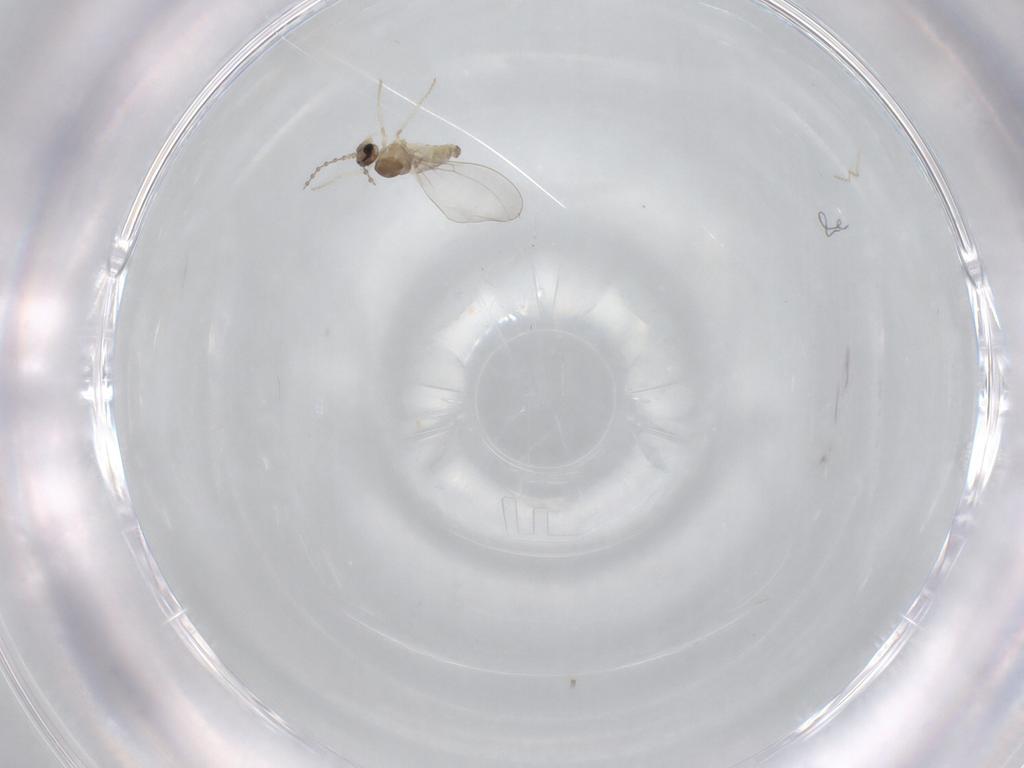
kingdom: Animalia
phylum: Arthropoda
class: Insecta
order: Diptera
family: Cecidomyiidae
